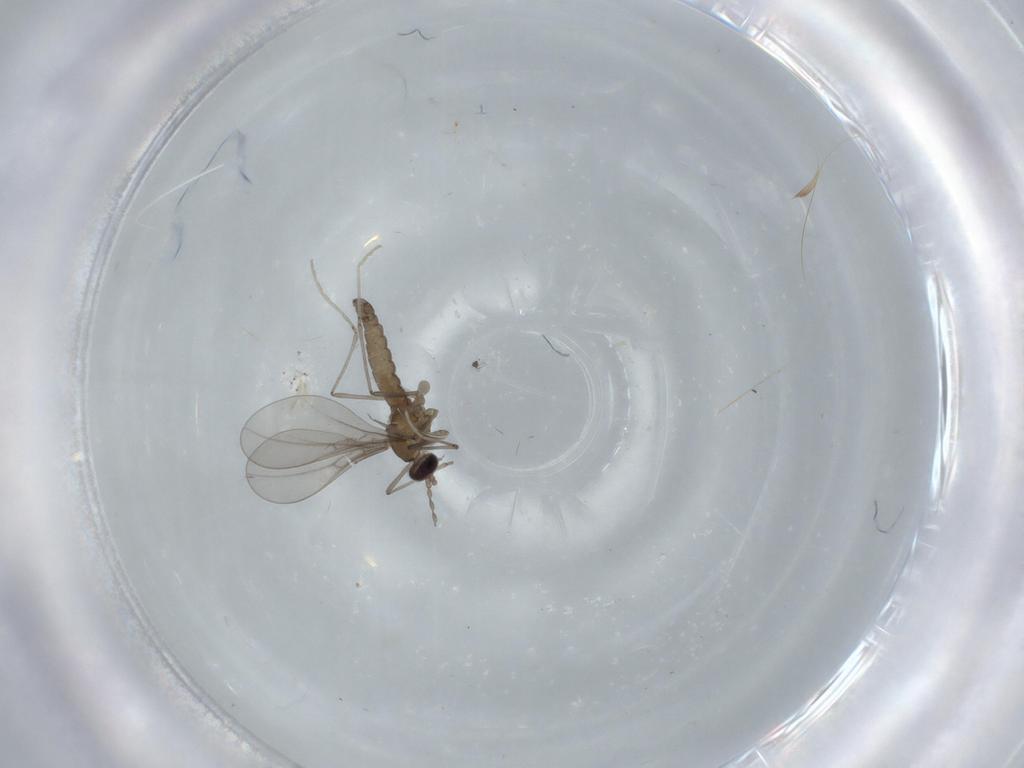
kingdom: Animalia
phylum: Arthropoda
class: Insecta
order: Diptera
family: Cecidomyiidae
